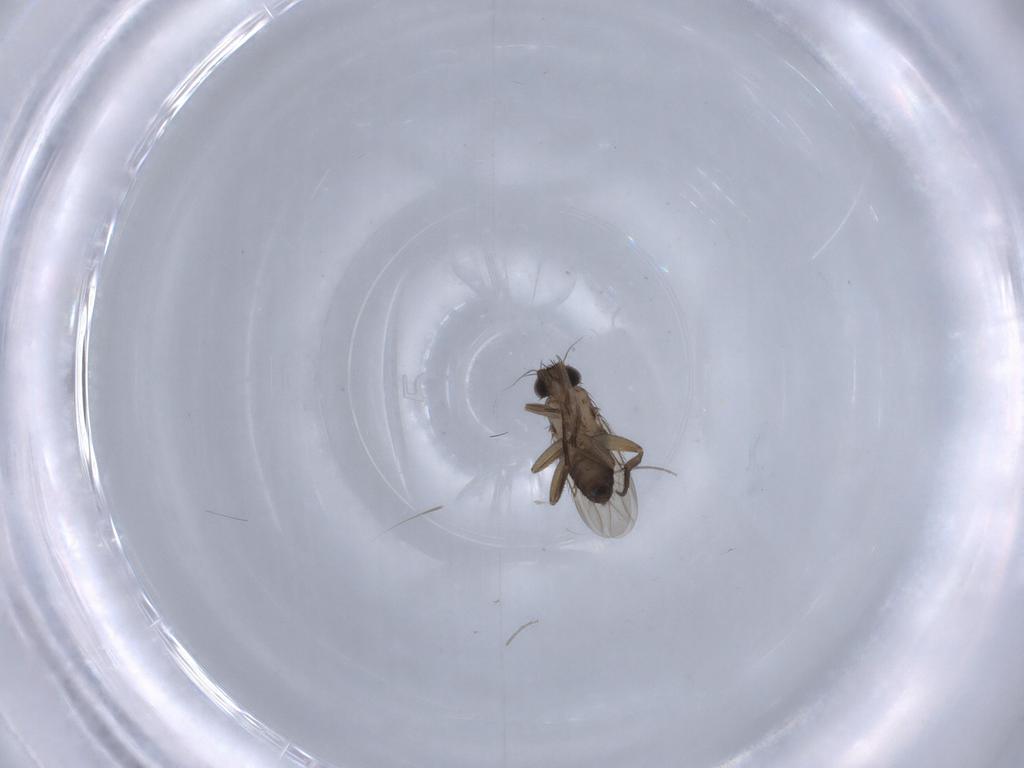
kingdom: Animalia
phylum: Arthropoda
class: Insecta
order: Diptera
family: Phoridae
